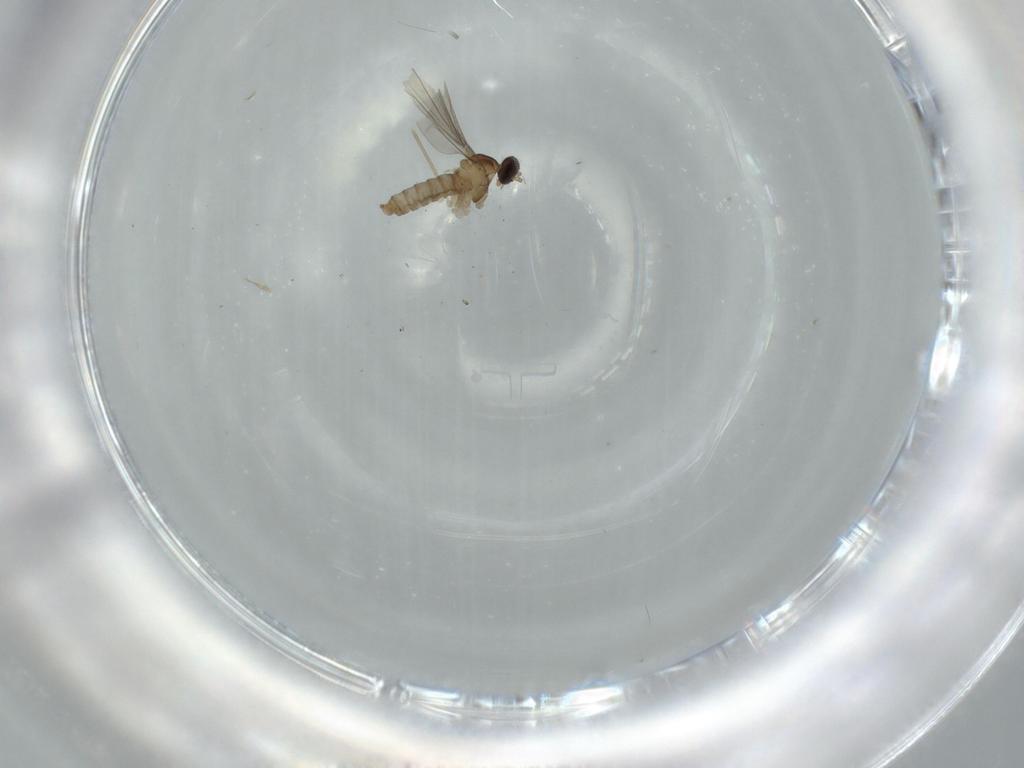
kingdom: Animalia
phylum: Arthropoda
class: Insecta
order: Diptera
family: Cecidomyiidae
